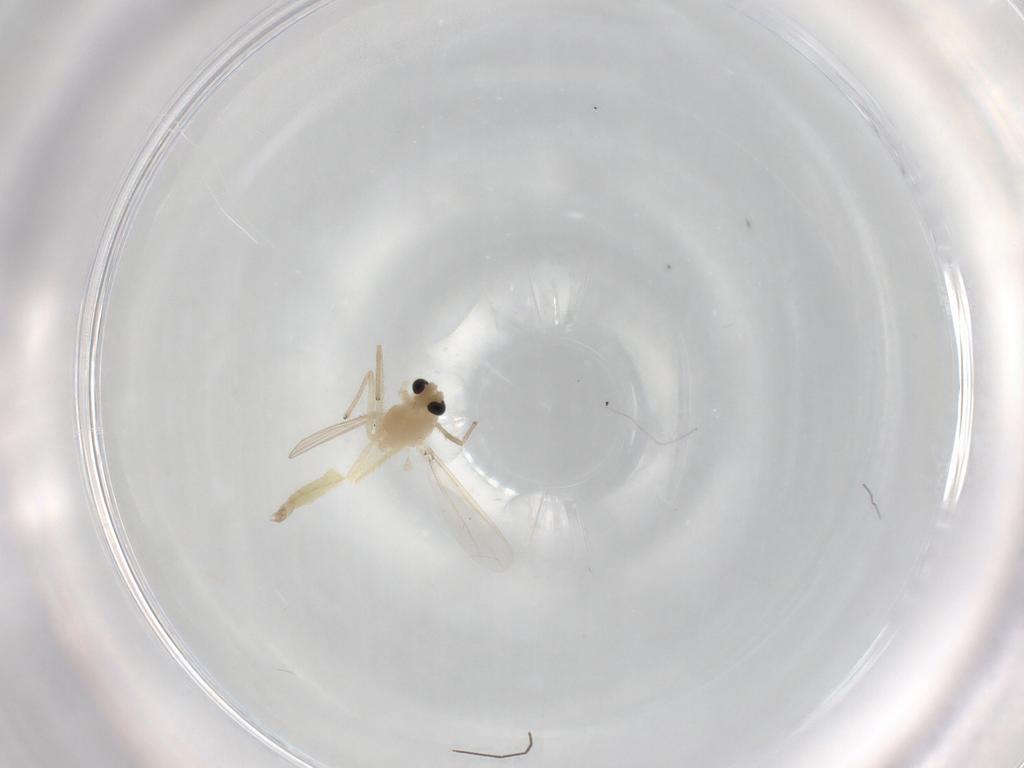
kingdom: Animalia
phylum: Arthropoda
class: Insecta
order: Diptera
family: Chironomidae
